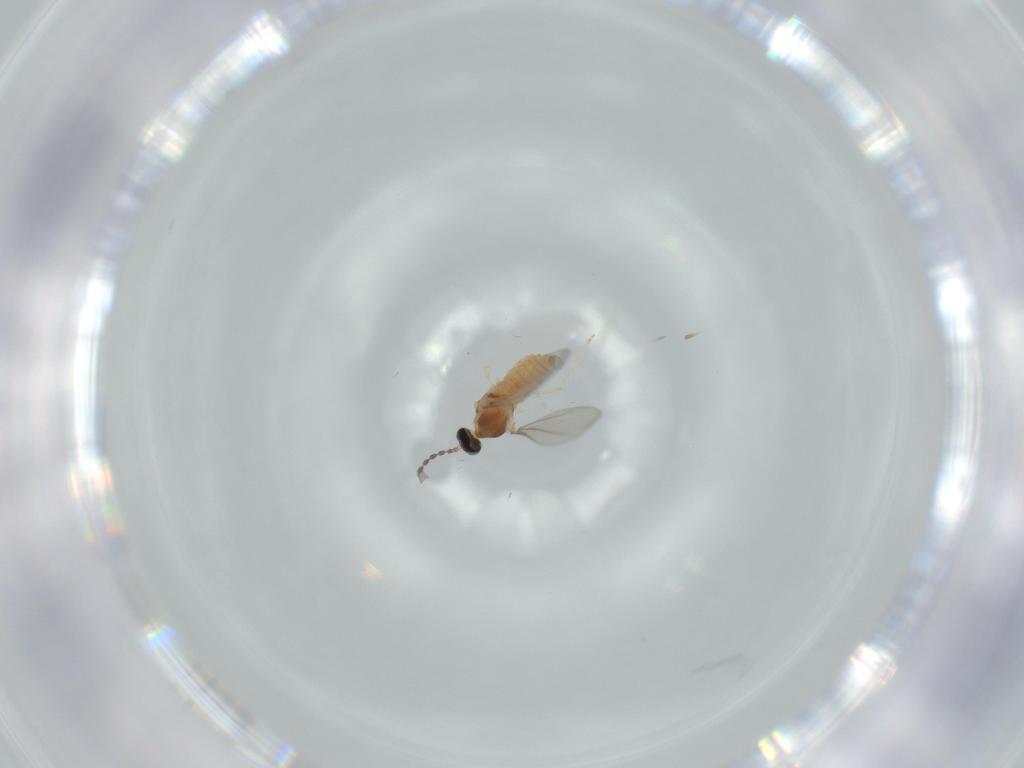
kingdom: Animalia
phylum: Arthropoda
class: Insecta
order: Diptera
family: Cecidomyiidae
